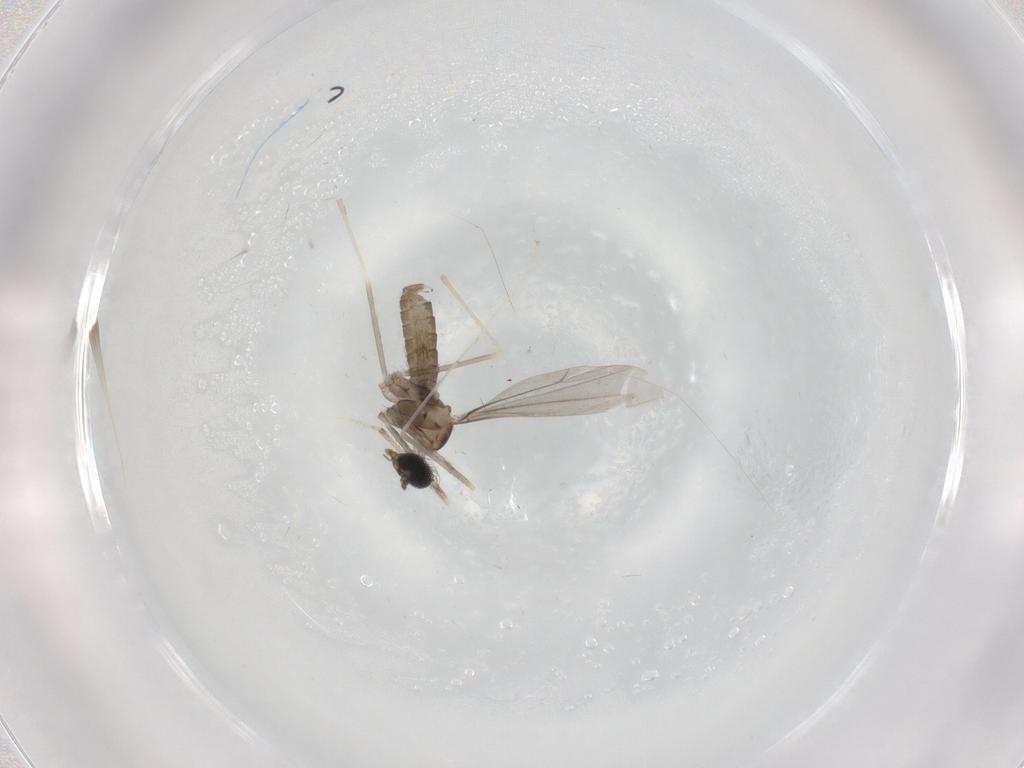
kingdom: Animalia
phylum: Arthropoda
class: Insecta
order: Diptera
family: Cecidomyiidae
